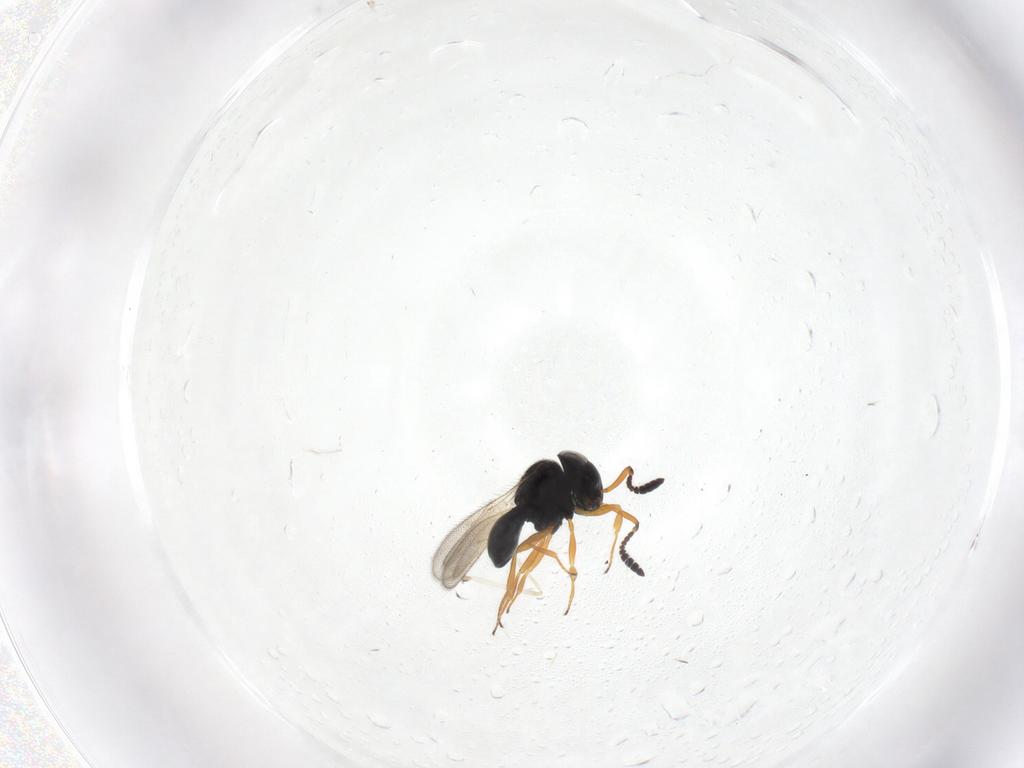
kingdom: Animalia
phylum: Arthropoda
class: Insecta
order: Hymenoptera
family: Scelionidae
